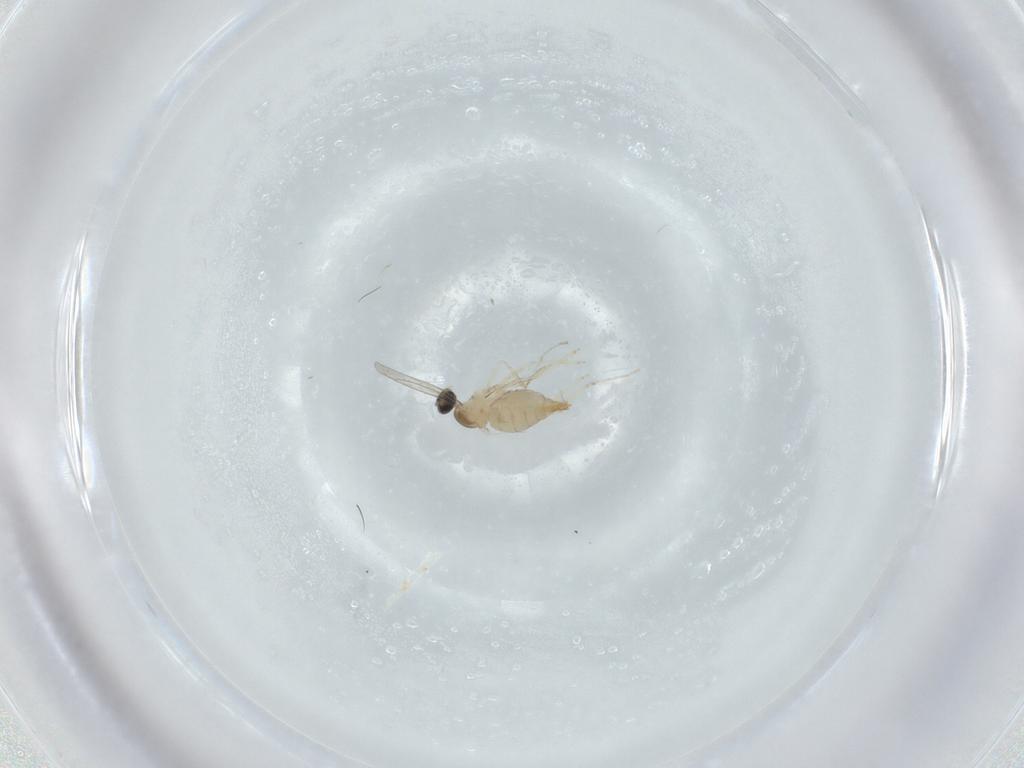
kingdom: Animalia
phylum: Arthropoda
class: Insecta
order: Diptera
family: Cecidomyiidae
